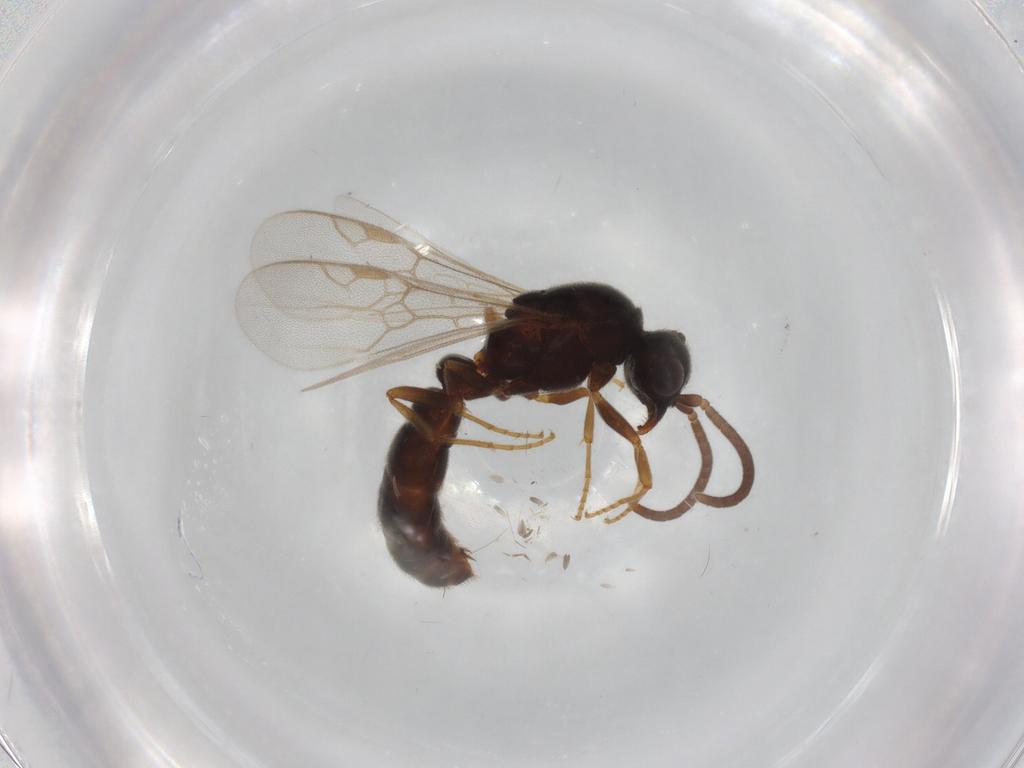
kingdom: Animalia
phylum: Arthropoda
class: Insecta
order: Hymenoptera
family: Formicidae
